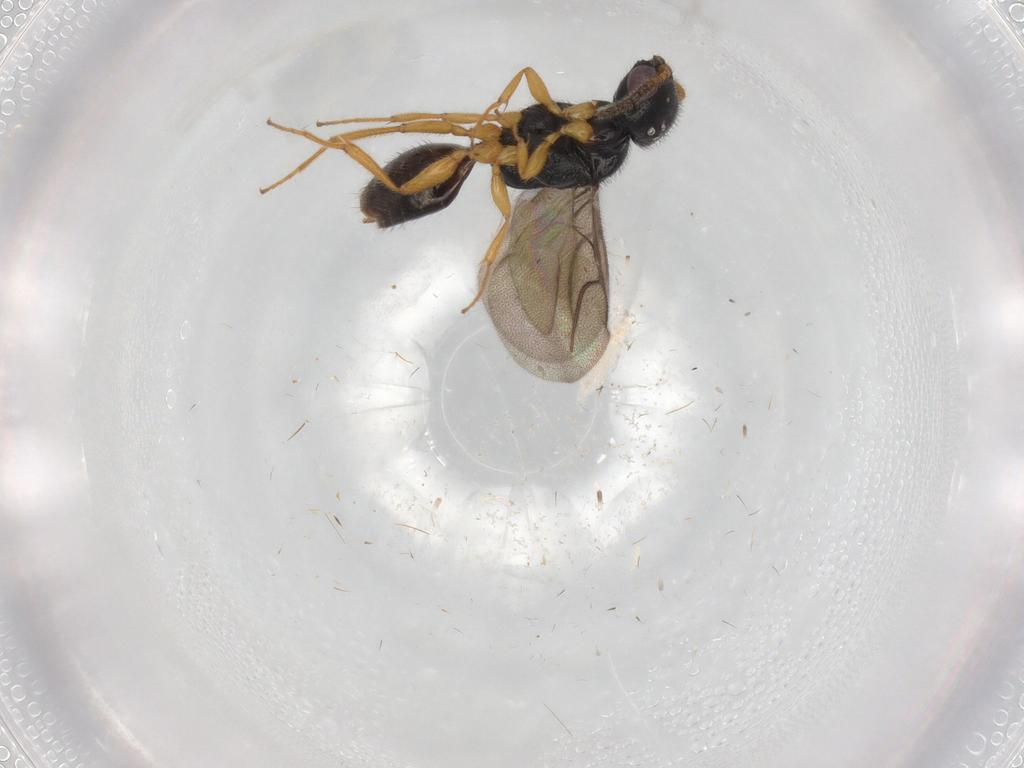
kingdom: Animalia
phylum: Arthropoda
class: Insecta
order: Hymenoptera
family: Bethylidae
